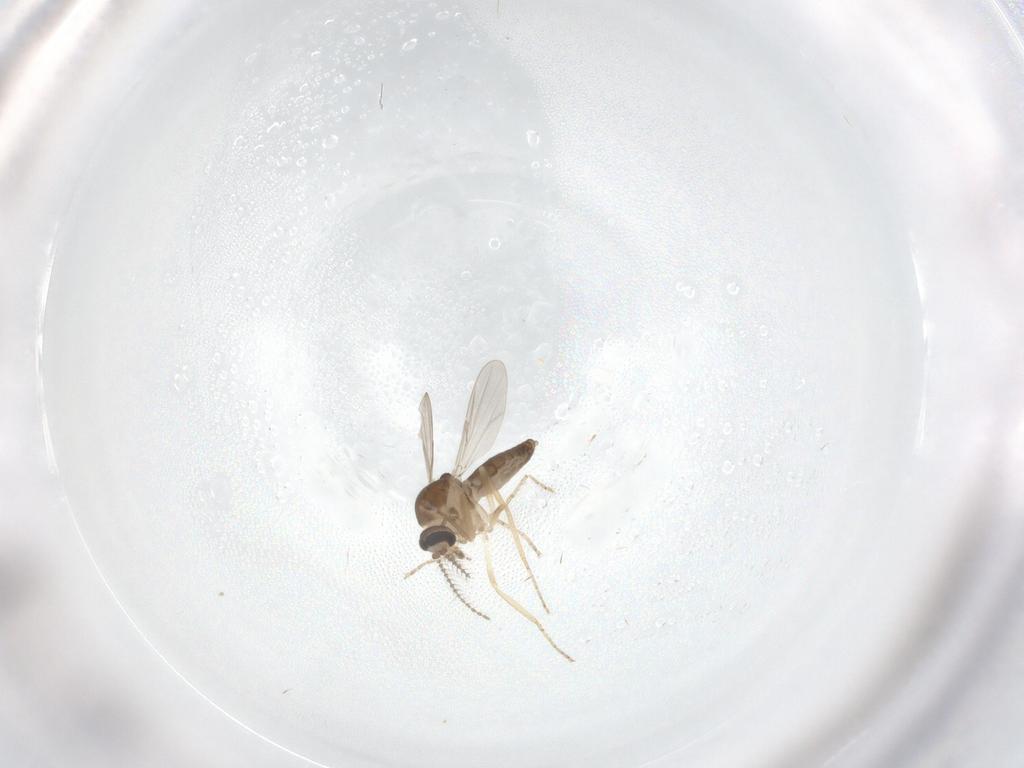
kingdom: Animalia
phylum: Arthropoda
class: Insecta
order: Diptera
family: Ceratopogonidae
